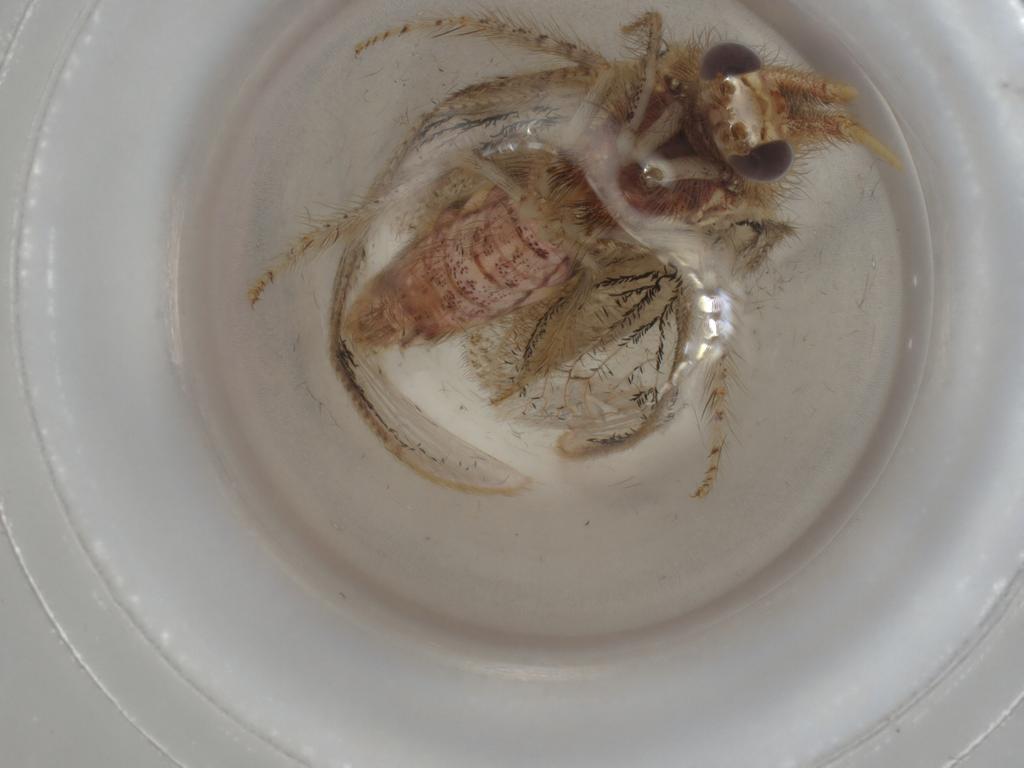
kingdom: Animalia
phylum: Arthropoda
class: Insecta
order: Neuroptera
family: Berothidae
